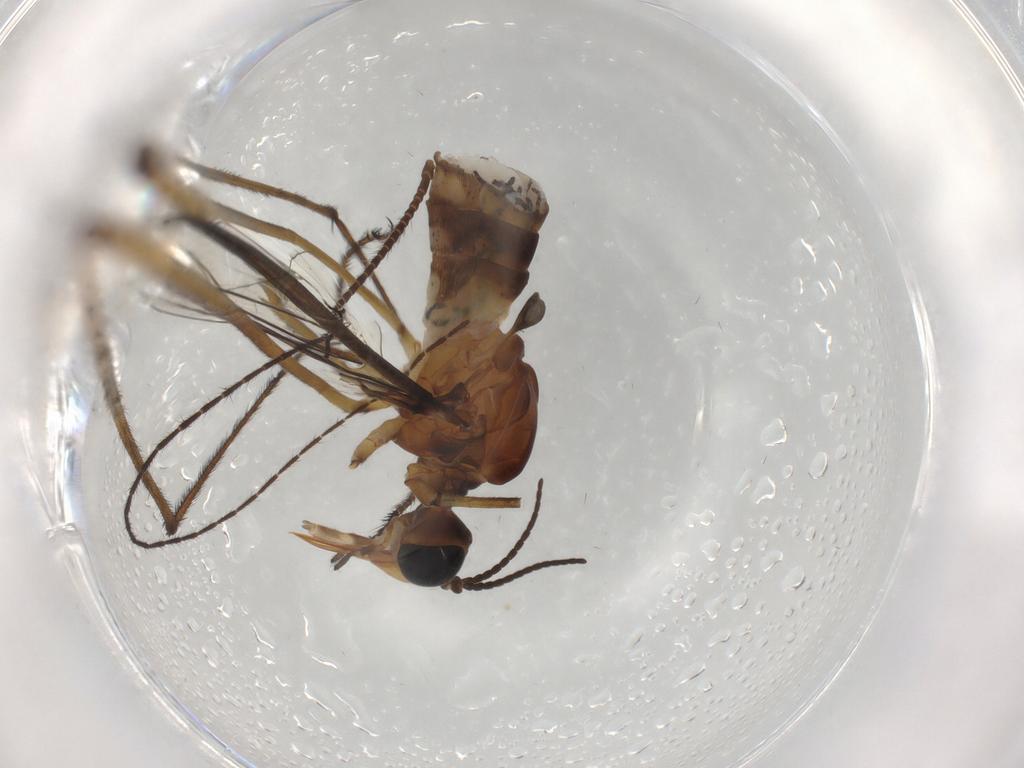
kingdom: Animalia
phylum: Arthropoda
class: Insecta
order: Diptera
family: Blephariceridae
